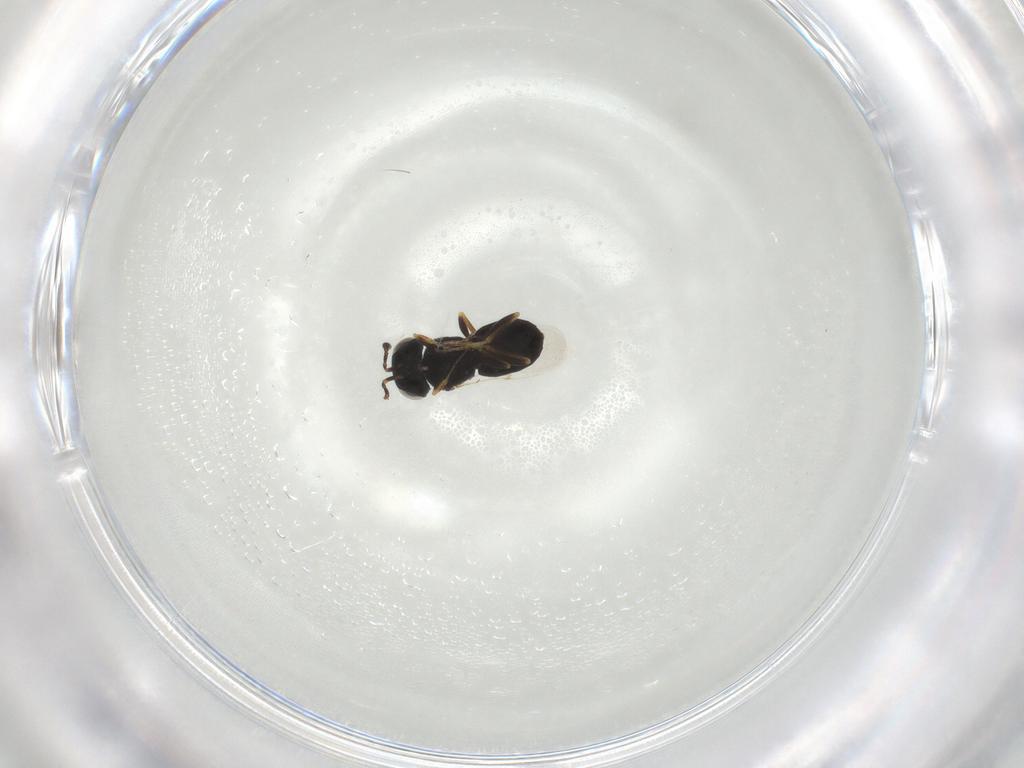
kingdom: Animalia
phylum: Arthropoda
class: Insecta
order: Hymenoptera
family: Scelionidae
